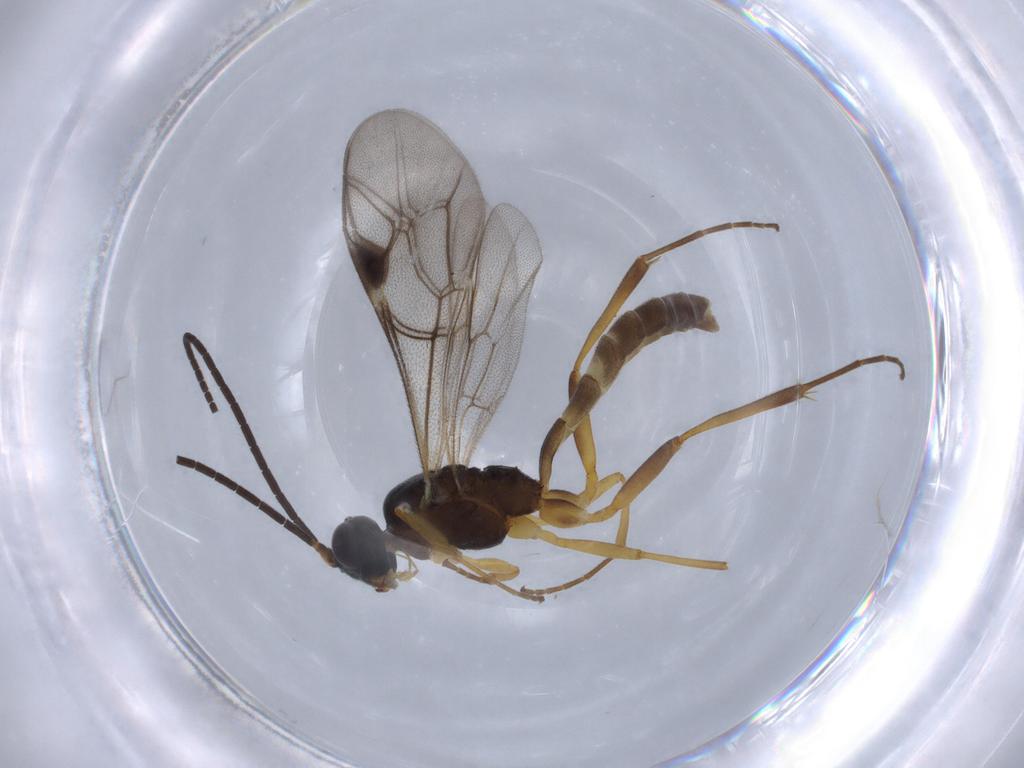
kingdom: Animalia
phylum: Arthropoda
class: Insecta
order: Hymenoptera
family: Ichneumonidae
